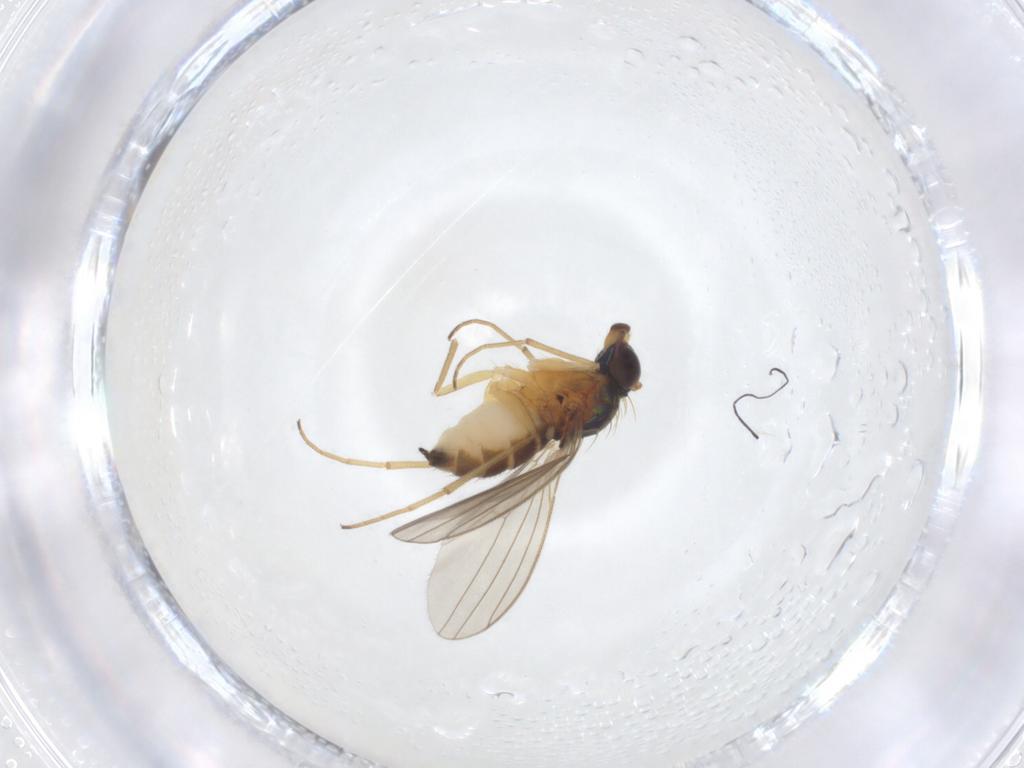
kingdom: Animalia
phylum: Arthropoda
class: Insecta
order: Diptera
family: Dolichopodidae
